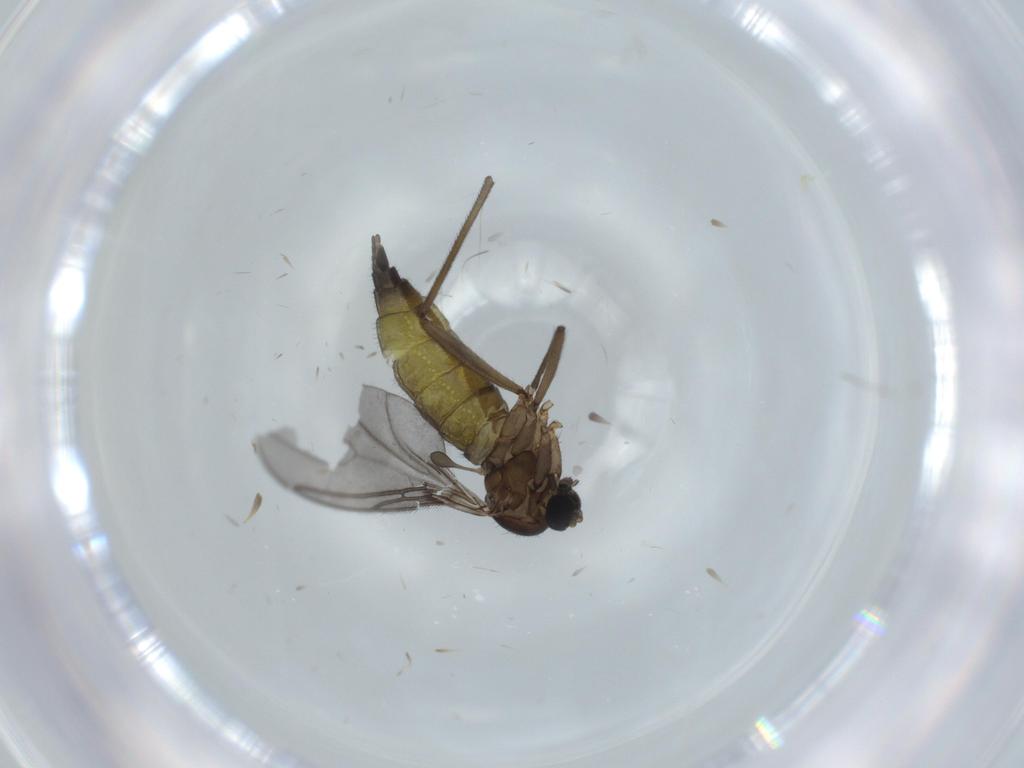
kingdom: Animalia
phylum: Arthropoda
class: Insecta
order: Diptera
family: Sciaridae
